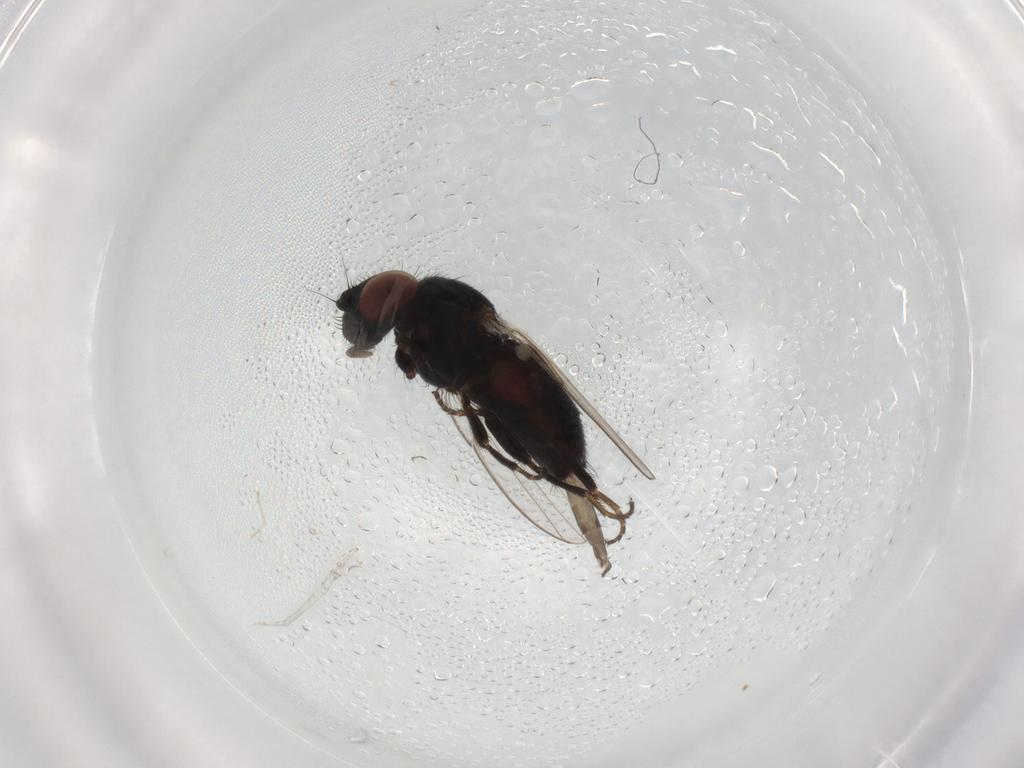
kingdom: Animalia
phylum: Arthropoda
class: Insecta
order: Diptera
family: Milichiidae
